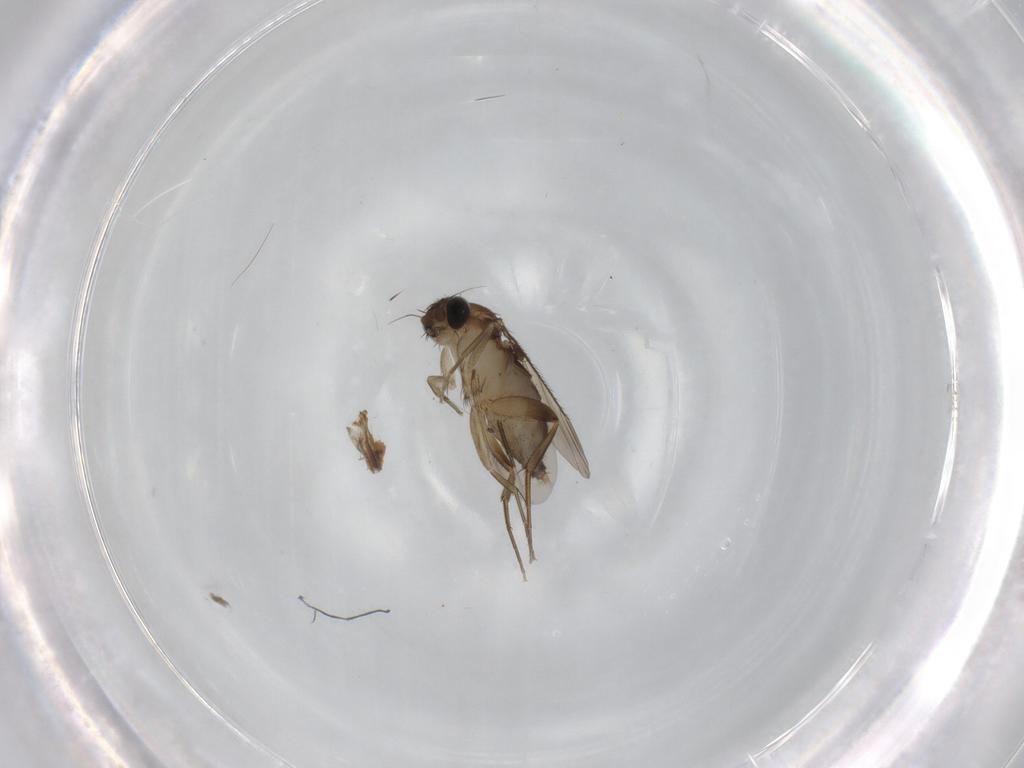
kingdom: Animalia
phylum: Arthropoda
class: Insecta
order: Diptera
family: Phoridae
